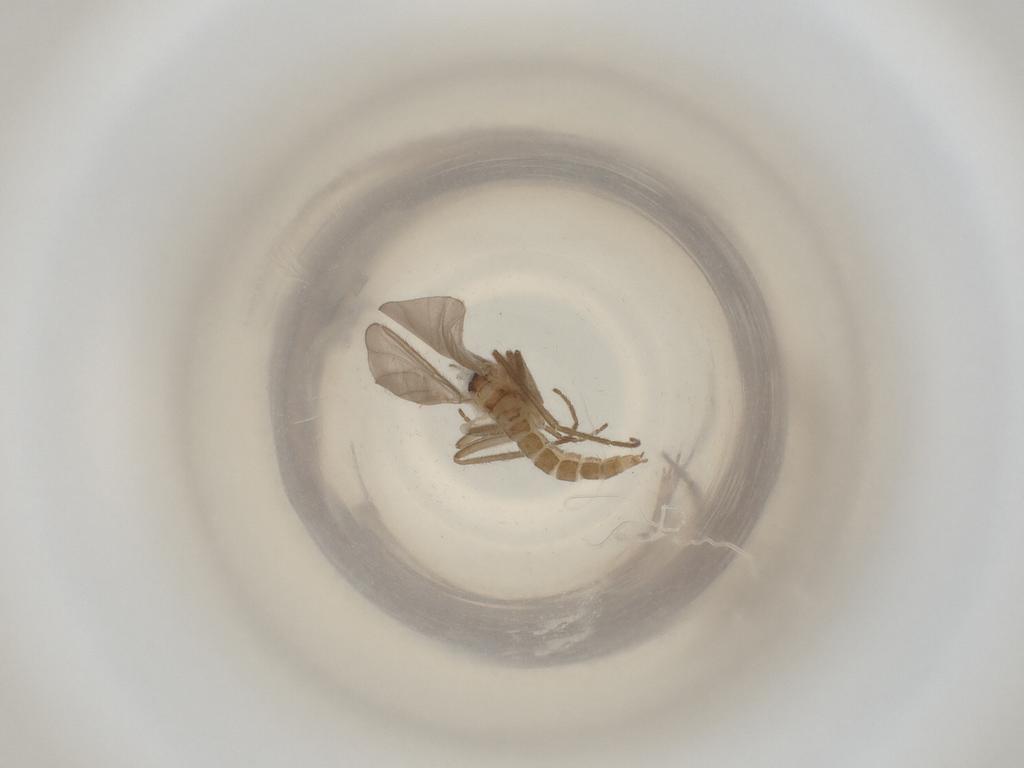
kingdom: Animalia
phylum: Arthropoda
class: Insecta
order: Diptera
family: Cecidomyiidae
